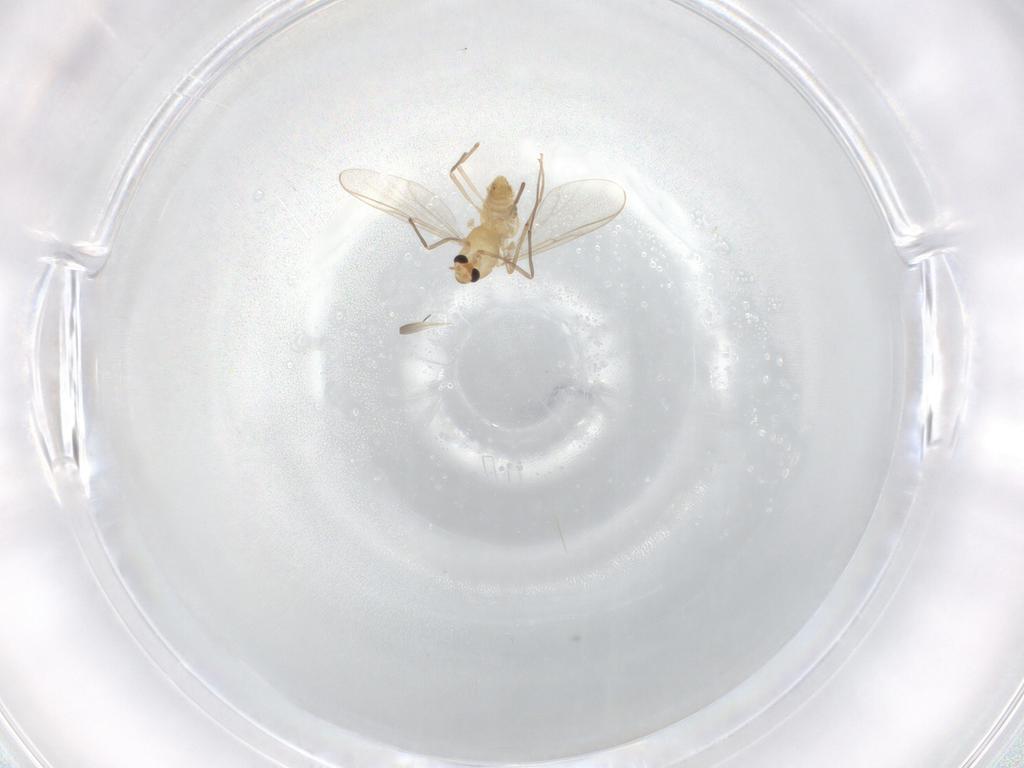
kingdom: Animalia
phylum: Arthropoda
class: Insecta
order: Diptera
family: Chironomidae
